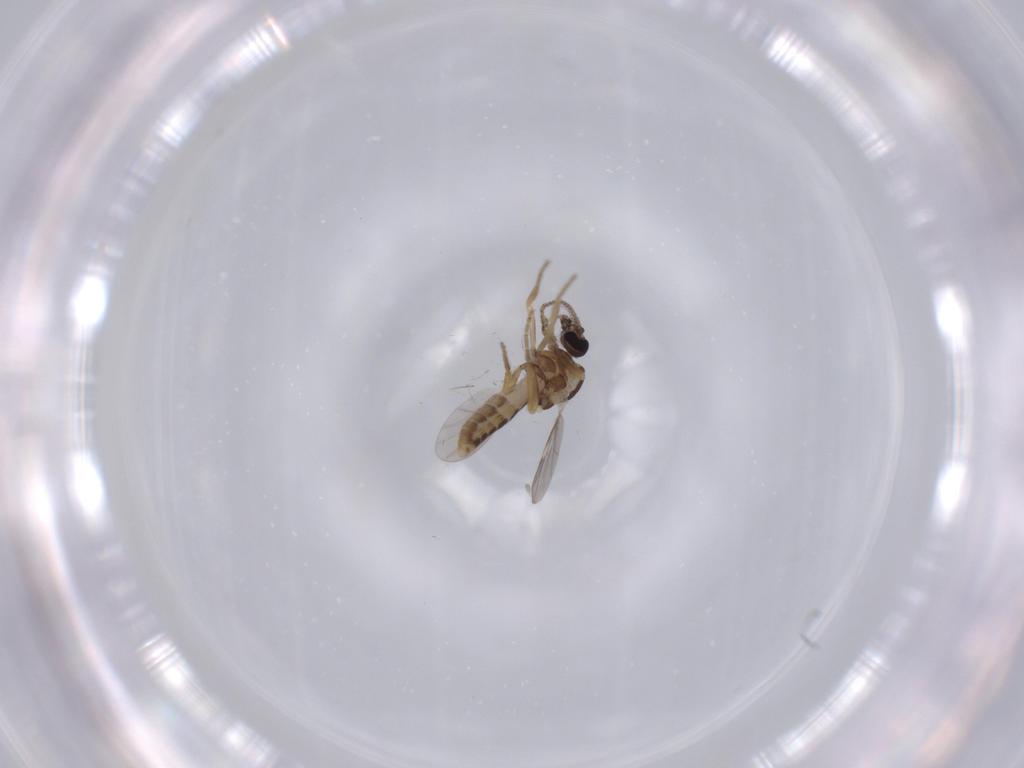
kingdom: Animalia
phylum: Arthropoda
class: Insecta
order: Diptera
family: Ceratopogonidae
